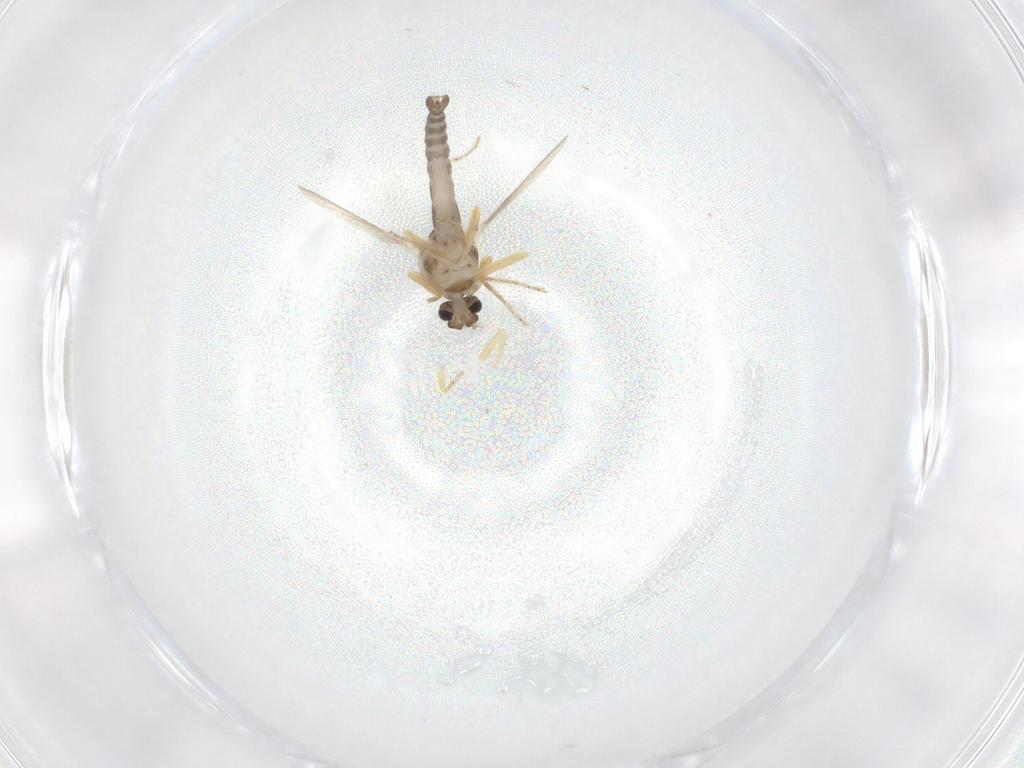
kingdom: Animalia
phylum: Arthropoda
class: Insecta
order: Diptera
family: Ceratopogonidae
